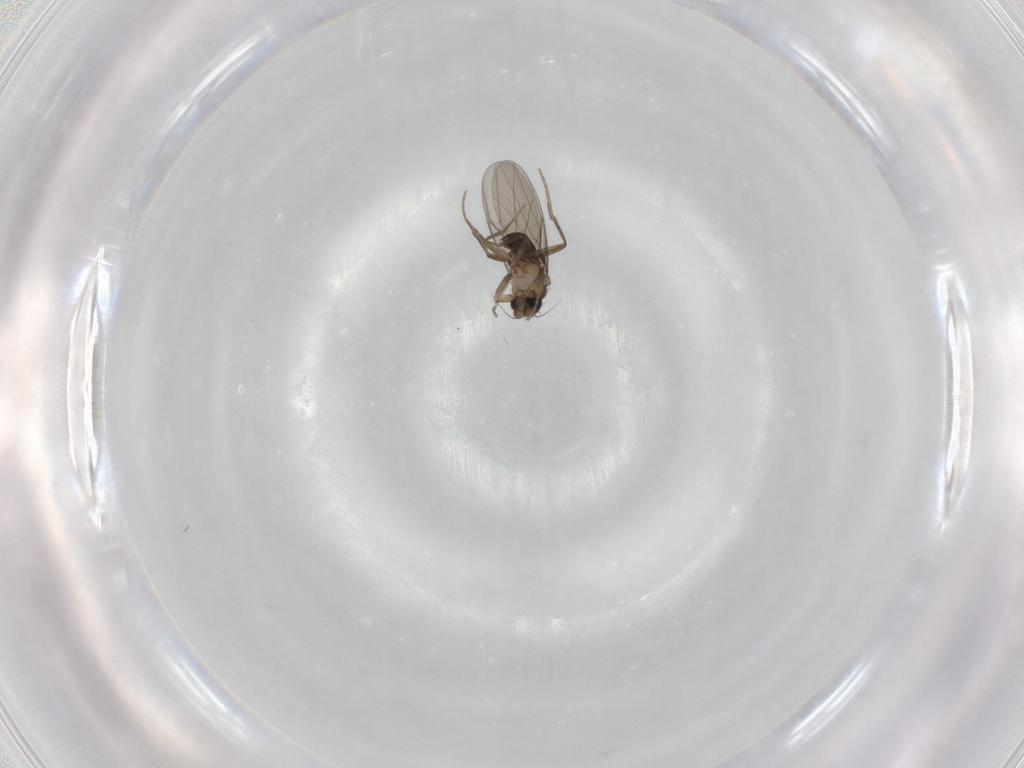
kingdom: Animalia
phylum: Arthropoda
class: Insecta
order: Diptera
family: Phoridae
